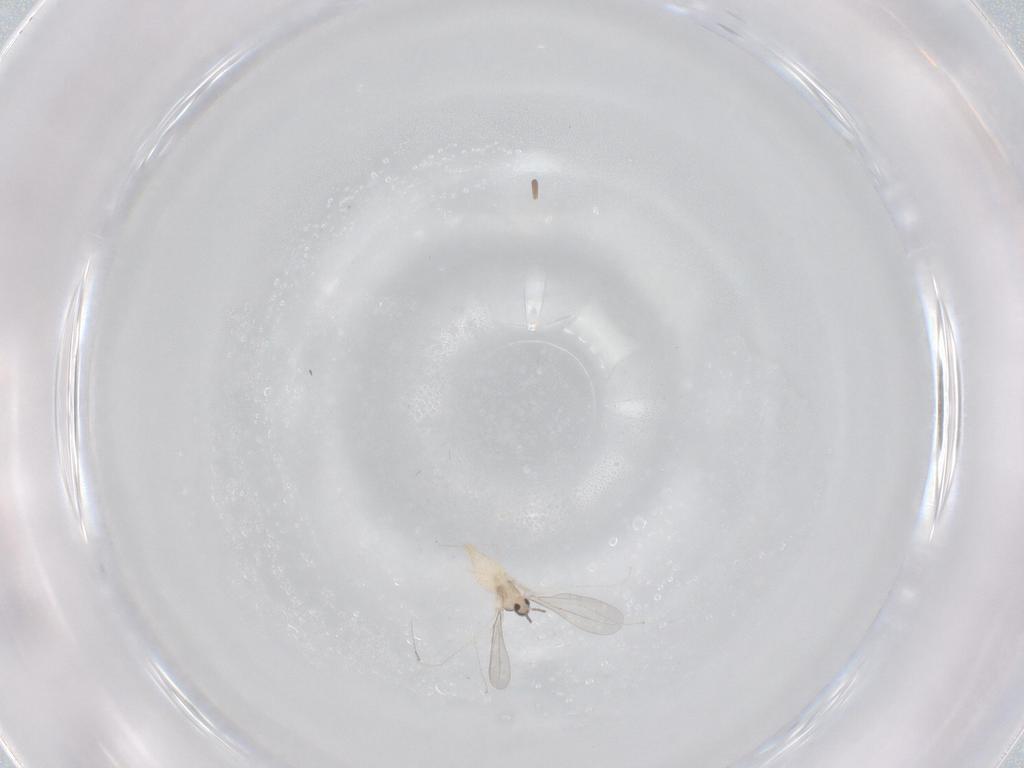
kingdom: Animalia
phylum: Arthropoda
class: Insecta
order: Diptera
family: Cecidomyiidae
